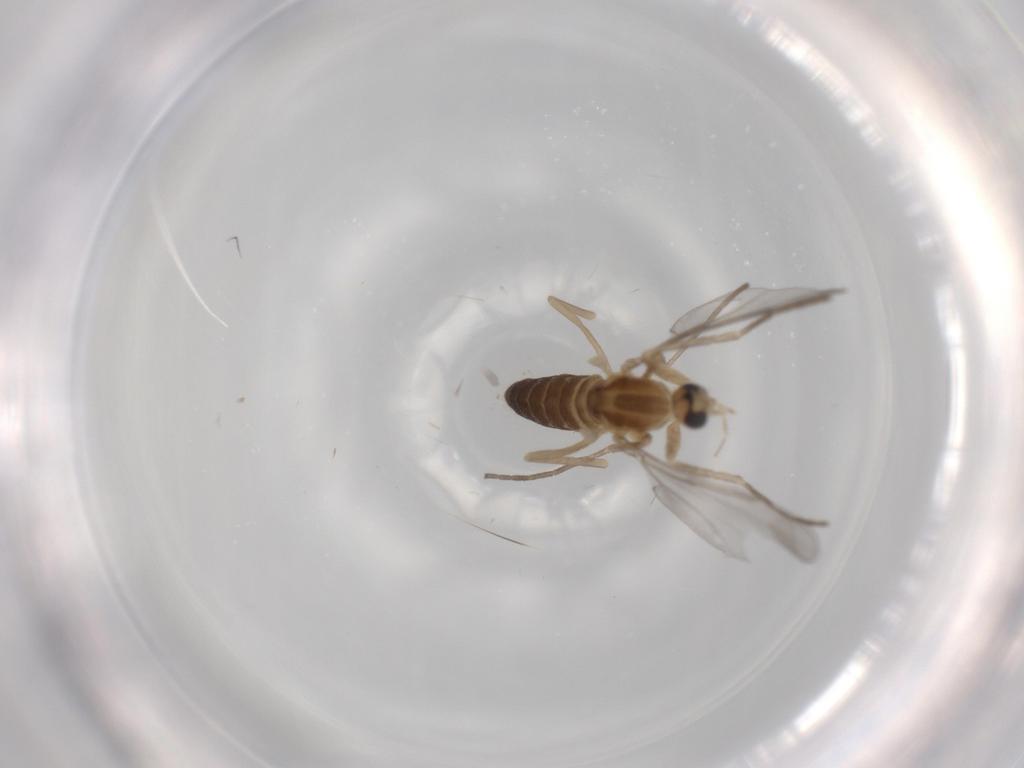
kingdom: Animalia
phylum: Arthropoda
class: Insecta
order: Diptera
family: Cecidomyiidae
